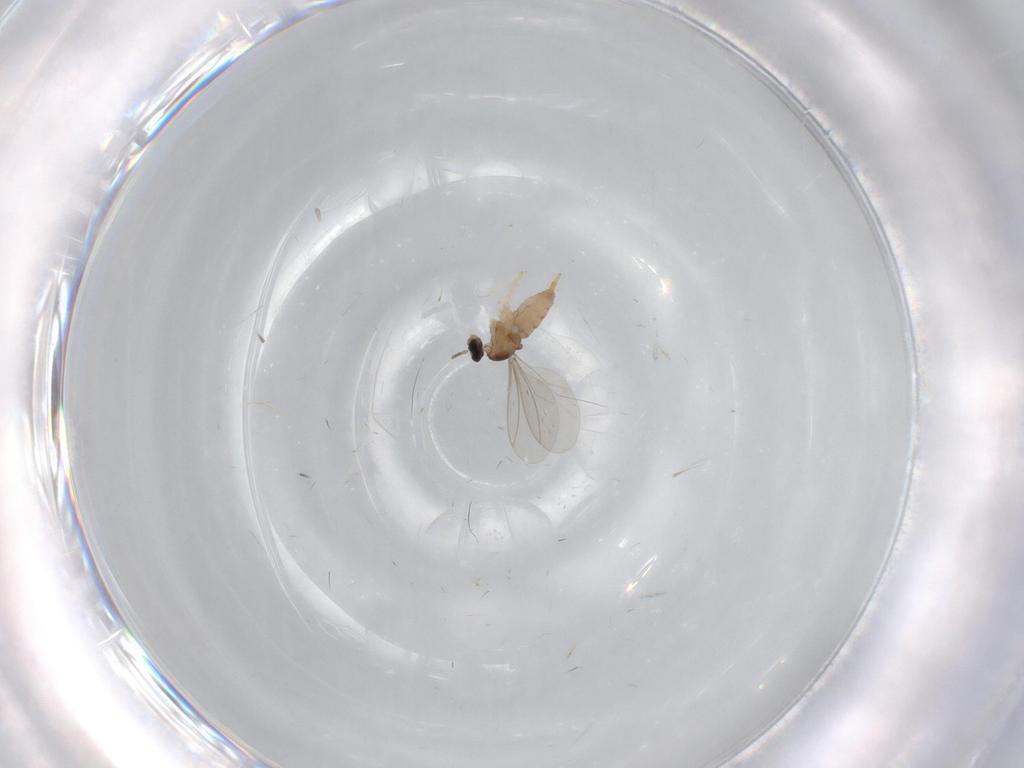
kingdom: Animalia
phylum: Arthropoda
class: Insecta
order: Diptera
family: Cecidomyiidae
